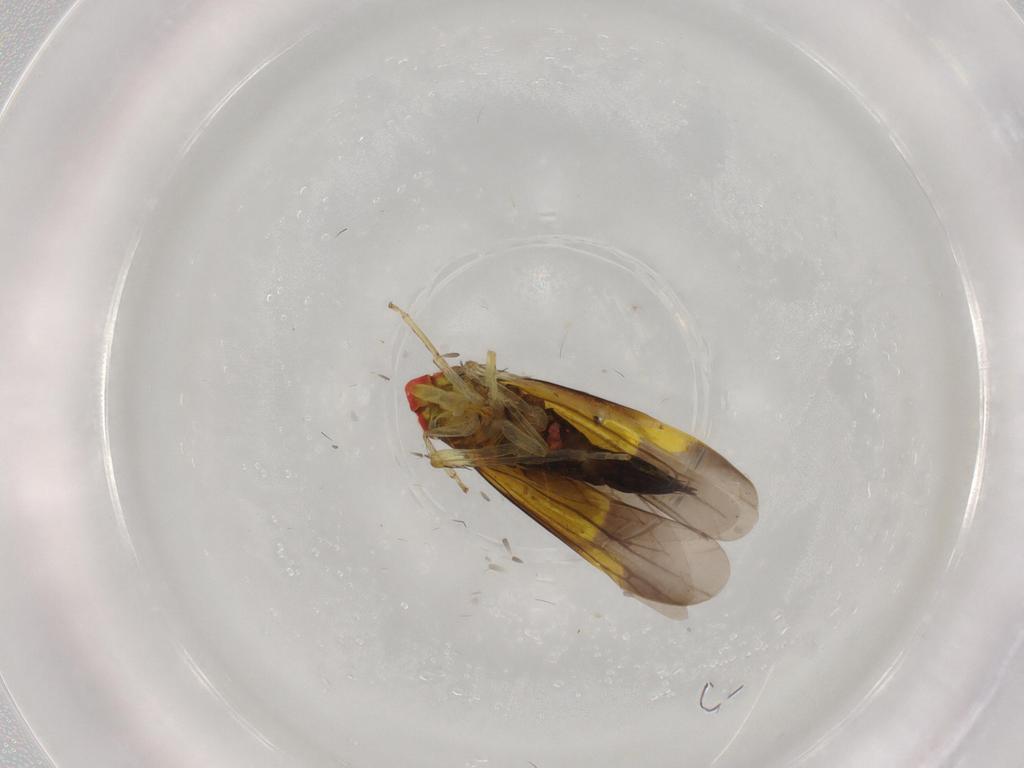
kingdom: Animalia
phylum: Arthropoda
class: Insecta
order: Hemiptera
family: Cicadellidae
